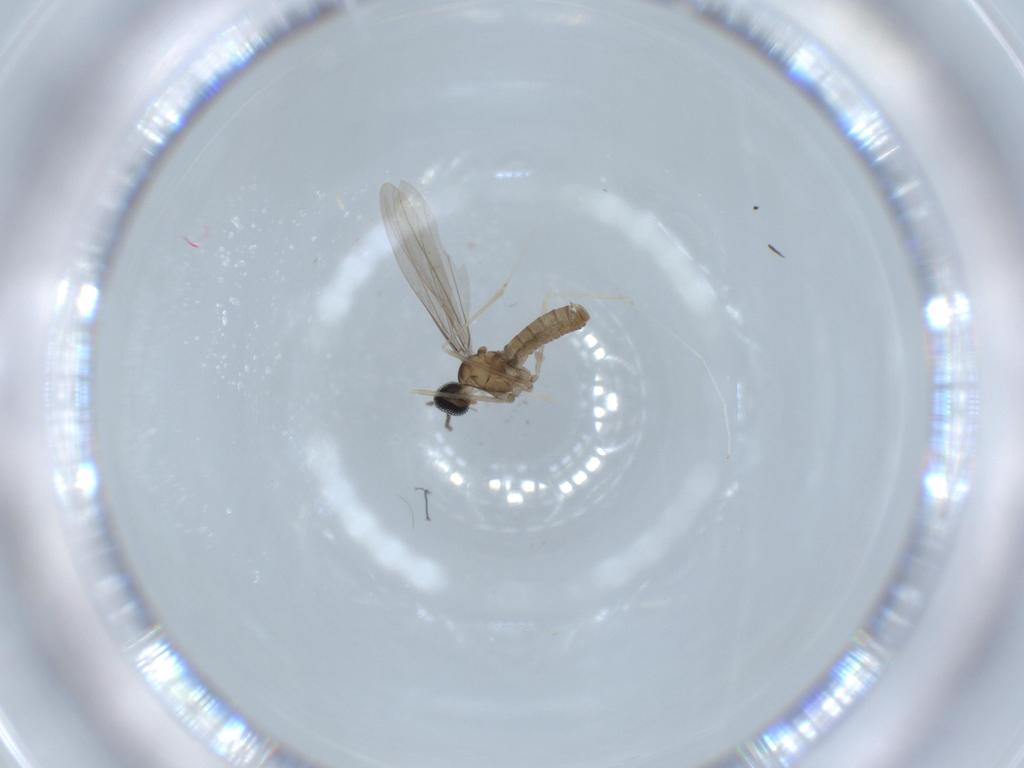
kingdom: Animalia
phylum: Arthropoda
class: Insecta
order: Diptera
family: Cecidomyiidae
